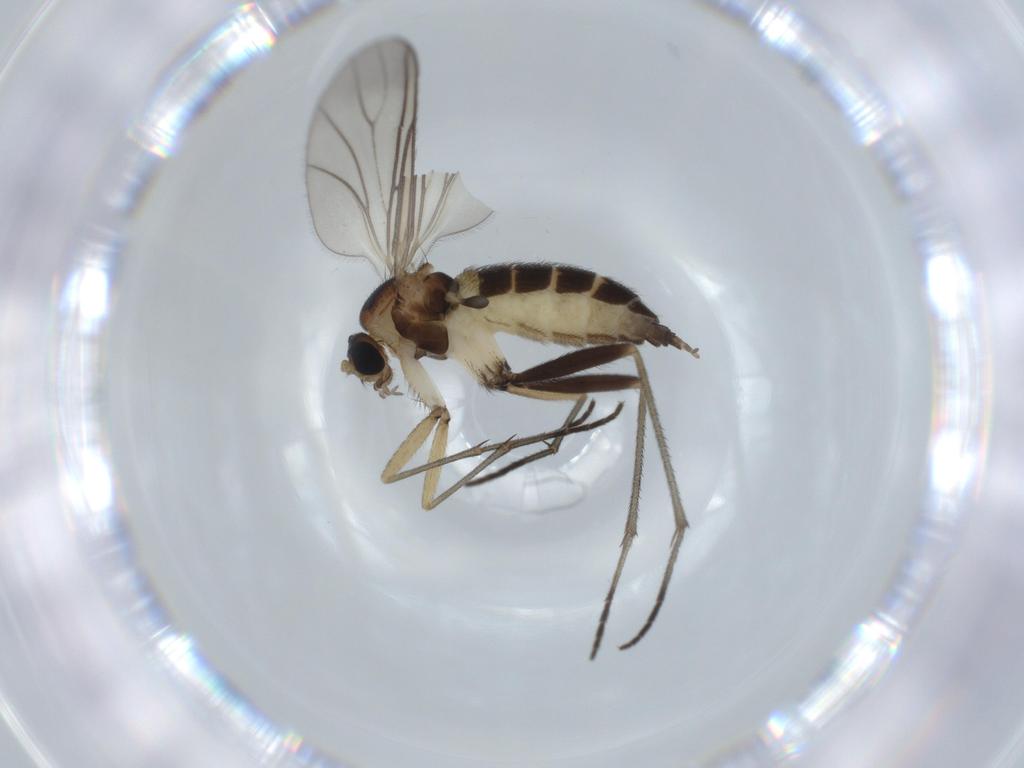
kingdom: Animalia
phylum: Arthropoda
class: Insecta
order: Diptera
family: Sciaridae
